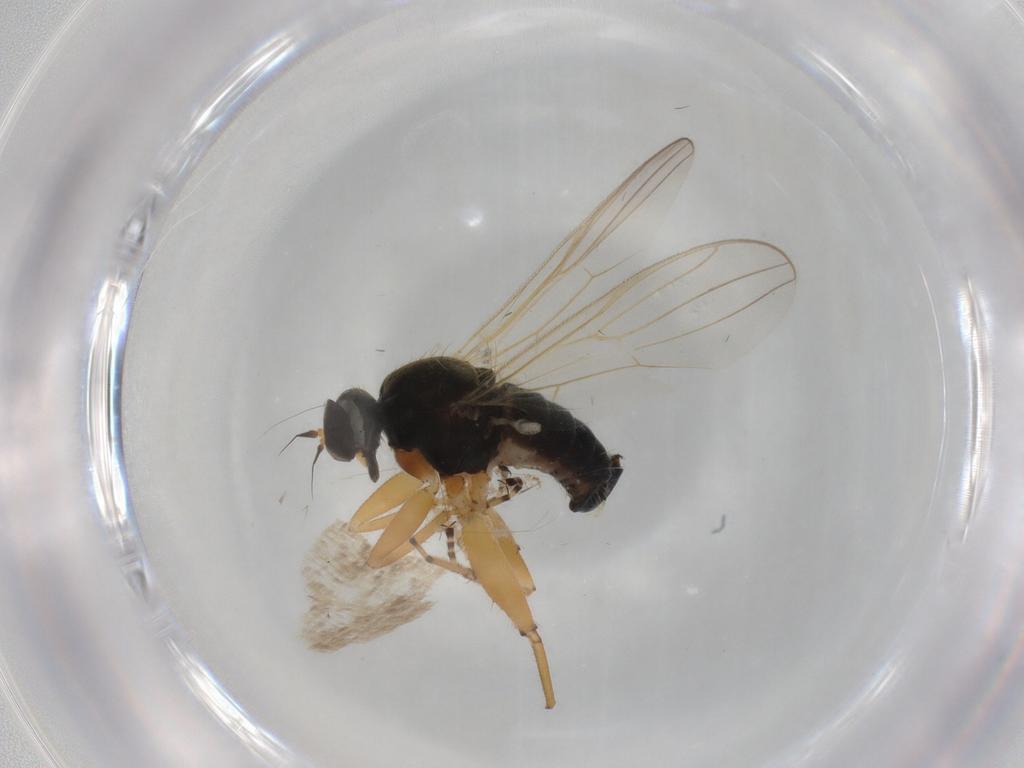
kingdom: Animalia
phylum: Arthropoda
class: Insecta
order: Diptera
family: Hybotidae
